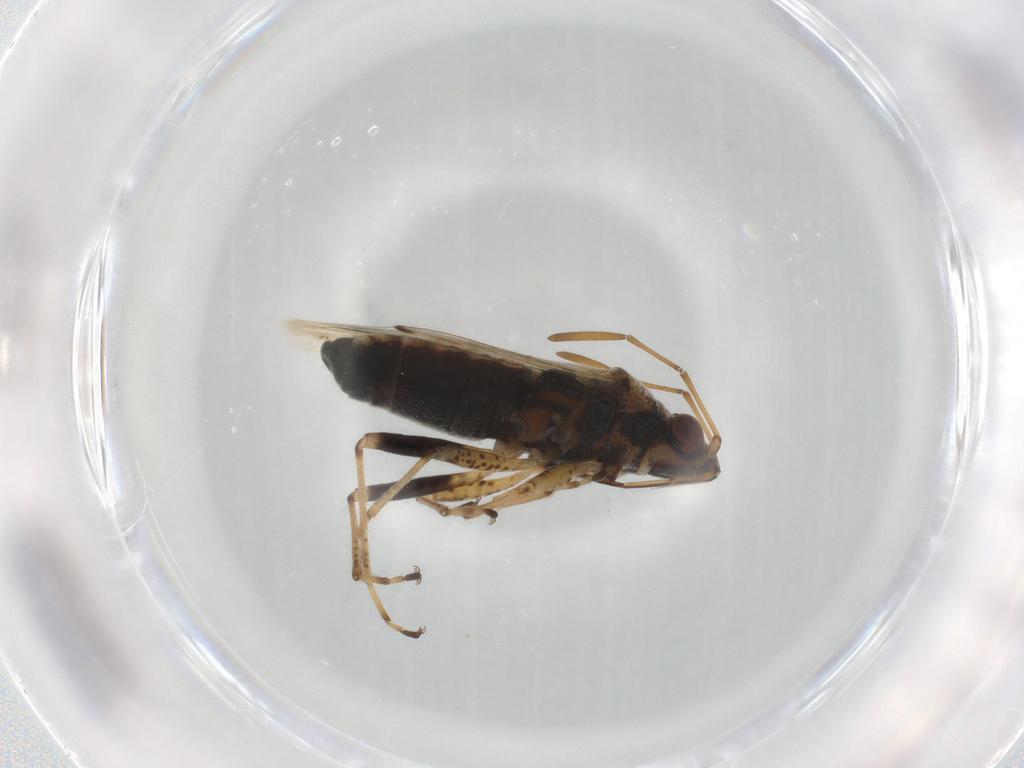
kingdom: Animalia
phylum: Arthropoda
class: Insecta
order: Hemiptera
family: Lygaeidae
